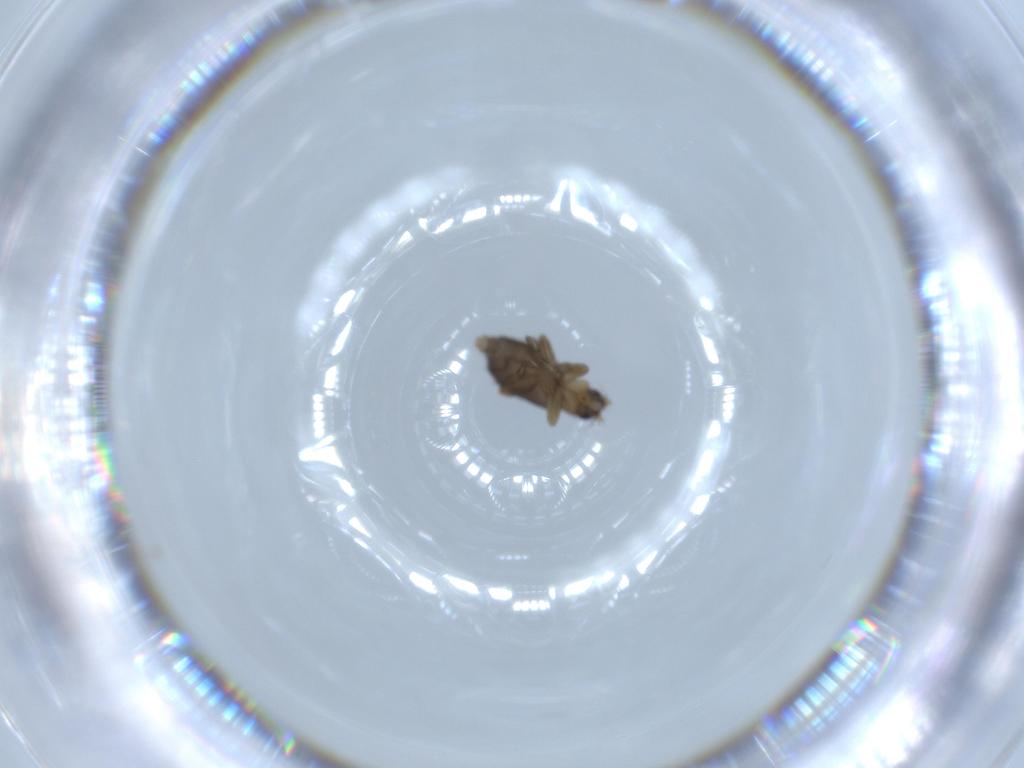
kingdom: Animalia
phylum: Arthropoda
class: Insecta
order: Diptera
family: Phoridae
